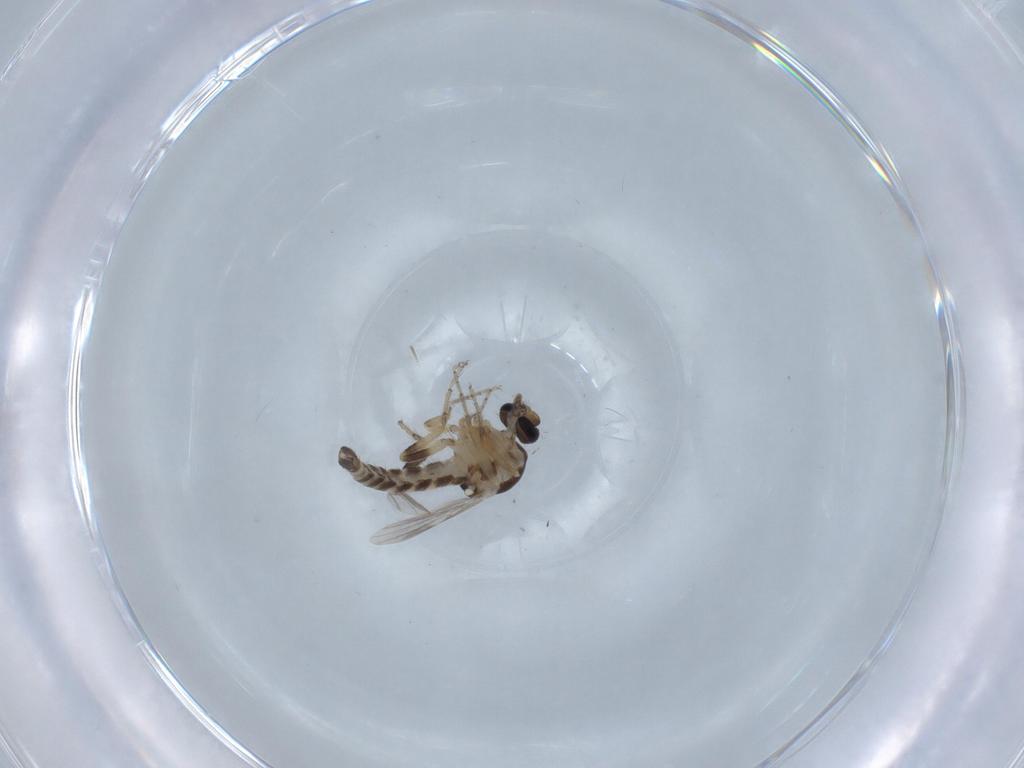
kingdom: Animalia
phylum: Arthropoda
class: Insecta
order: Diptera
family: Ceratopogonidae
